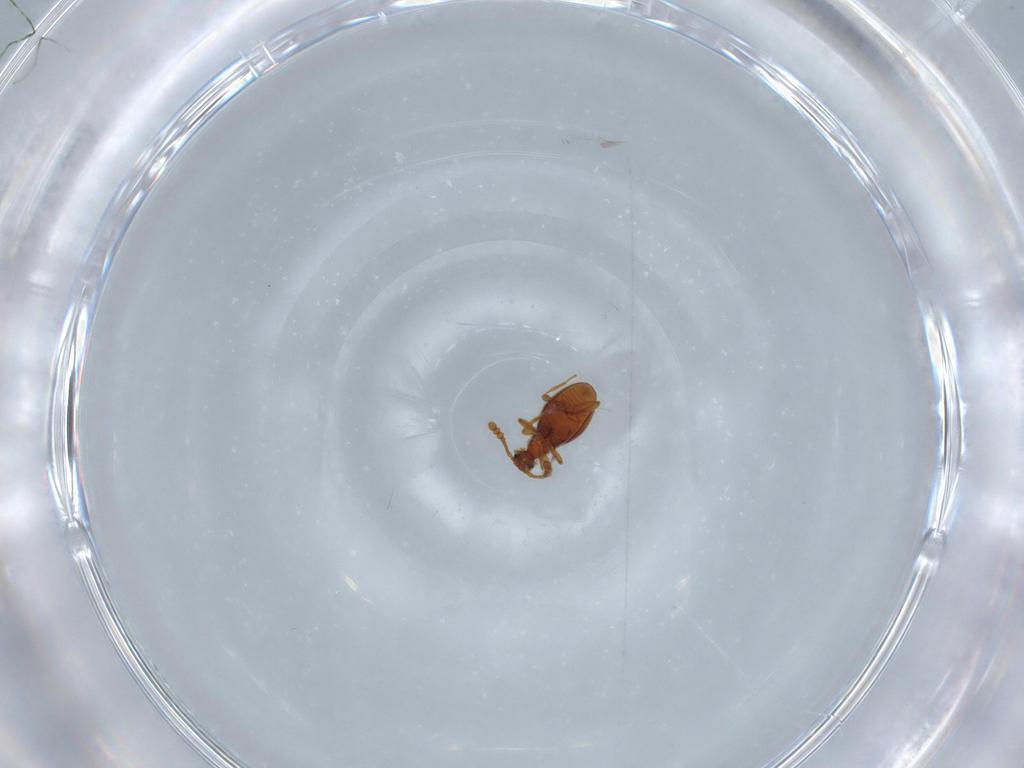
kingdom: Animalia
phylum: Arthropoda
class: Insecta
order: Coleoptera
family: Staphylinidae
